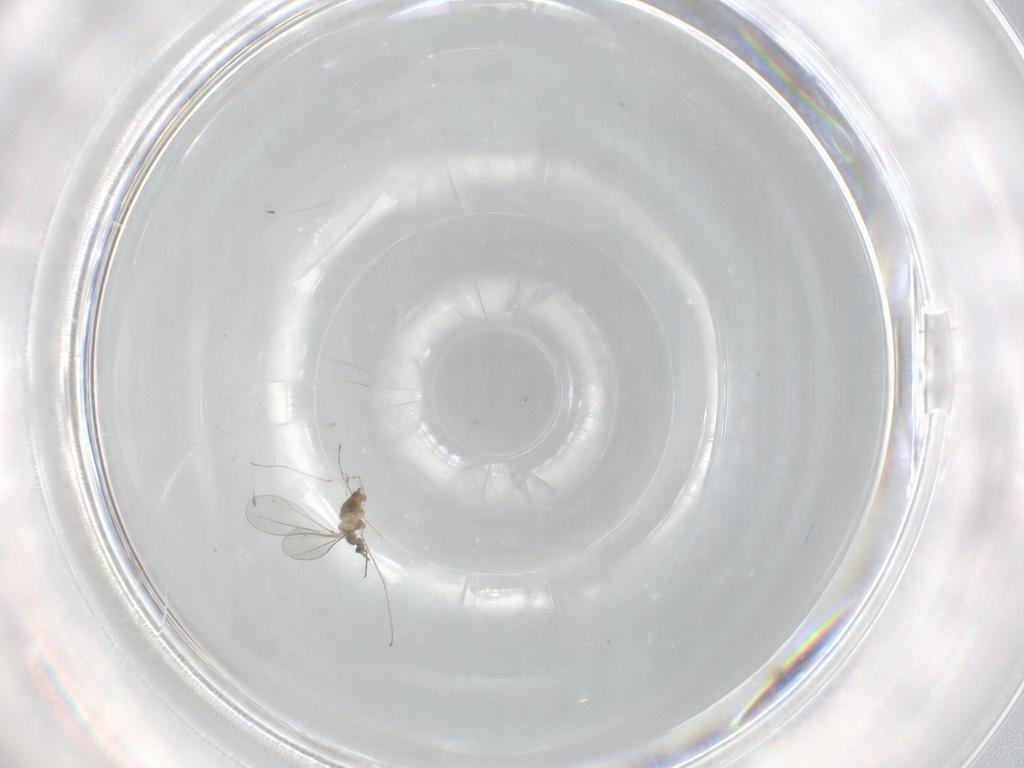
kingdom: Animalia
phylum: Arthropoda
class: Insecta
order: Diptera
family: Cecidomyiidae
